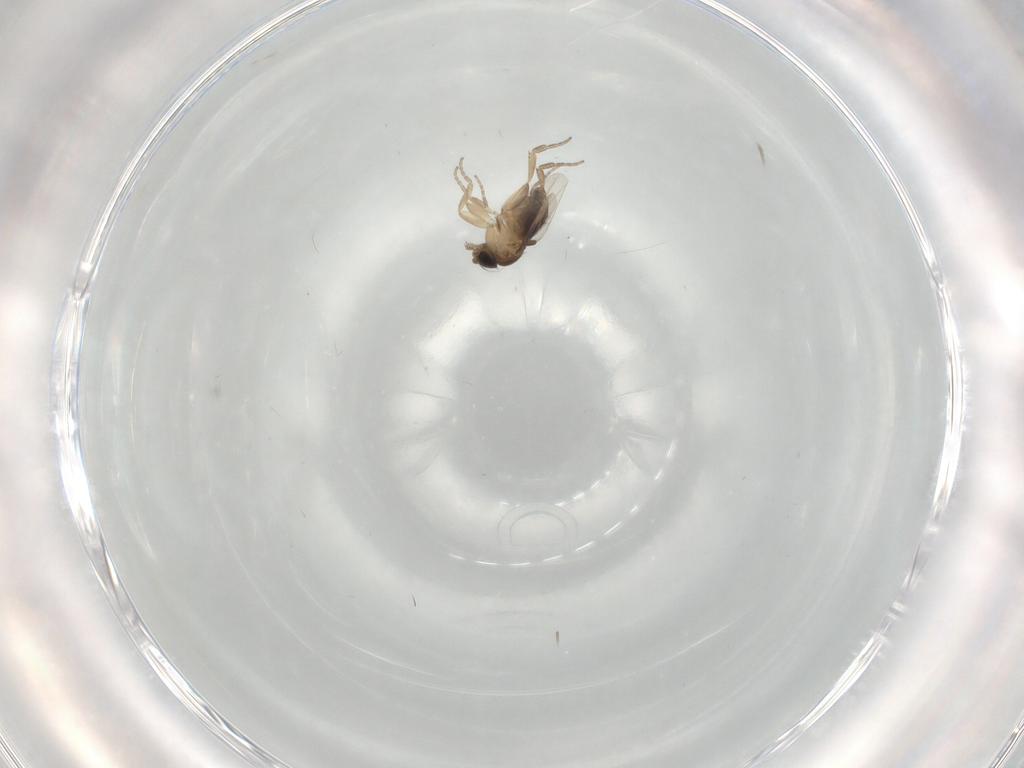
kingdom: Animalia
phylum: Arthropoda
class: Insecta
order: Diptera
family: Phoridae
